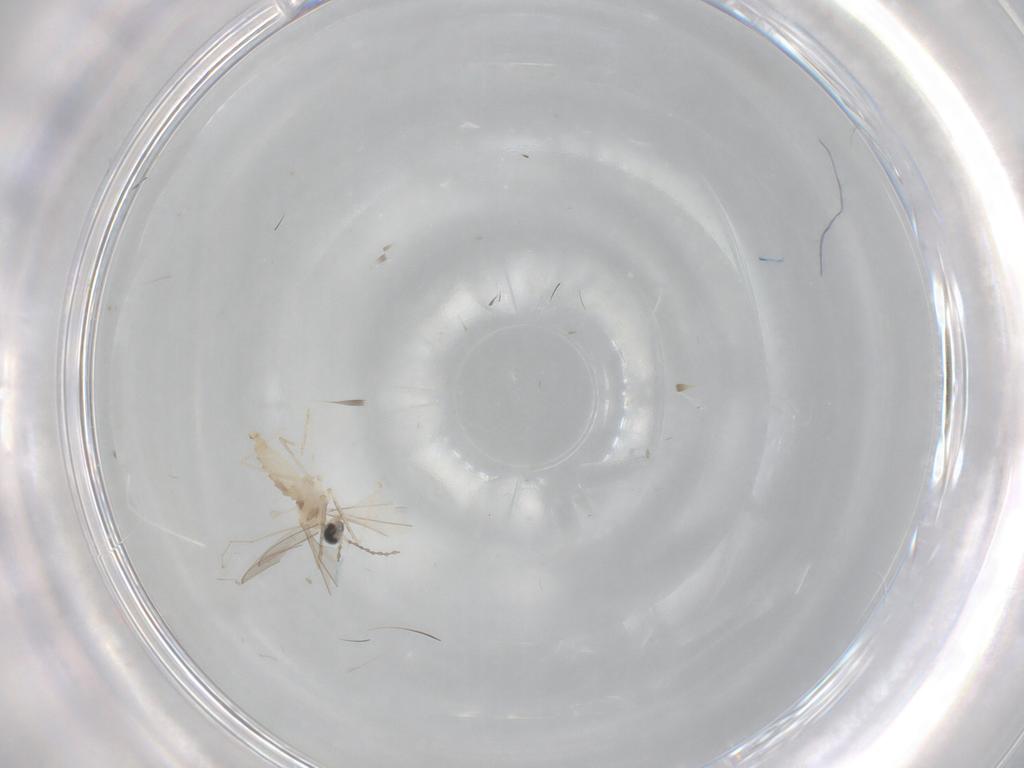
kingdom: Animalia
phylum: Arthropoda
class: Insecta
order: Diptera
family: Cecidomyiidae
